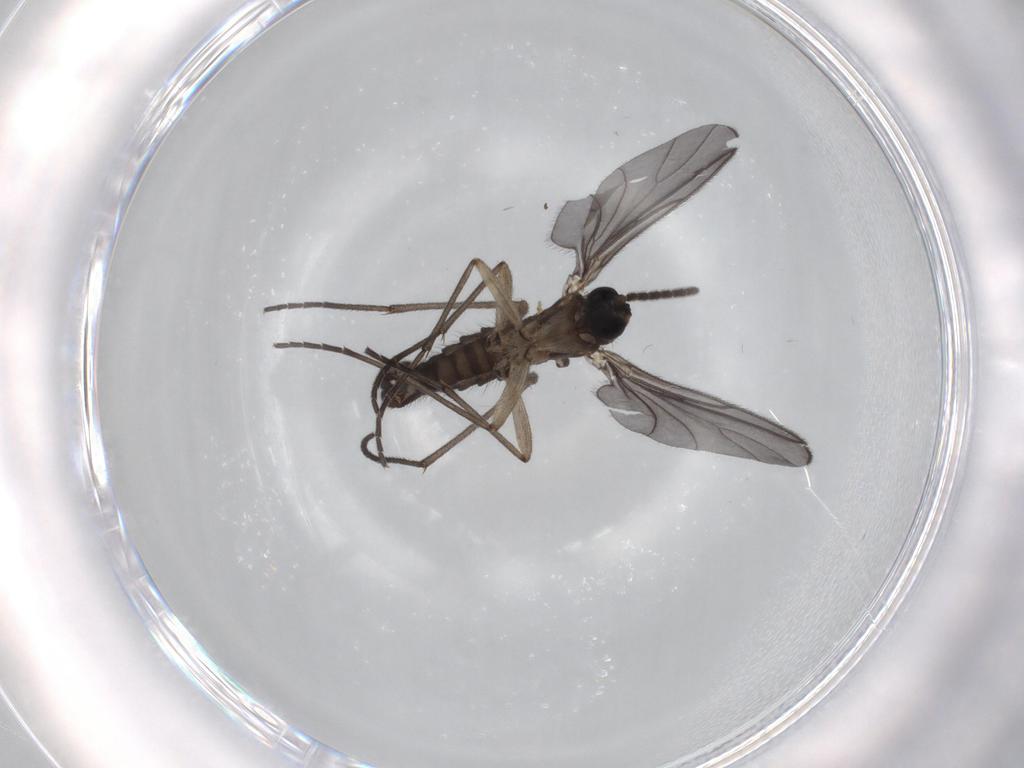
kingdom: Animalia
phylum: Arthropoda
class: Insecta
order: Diptera
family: Sciaridae
